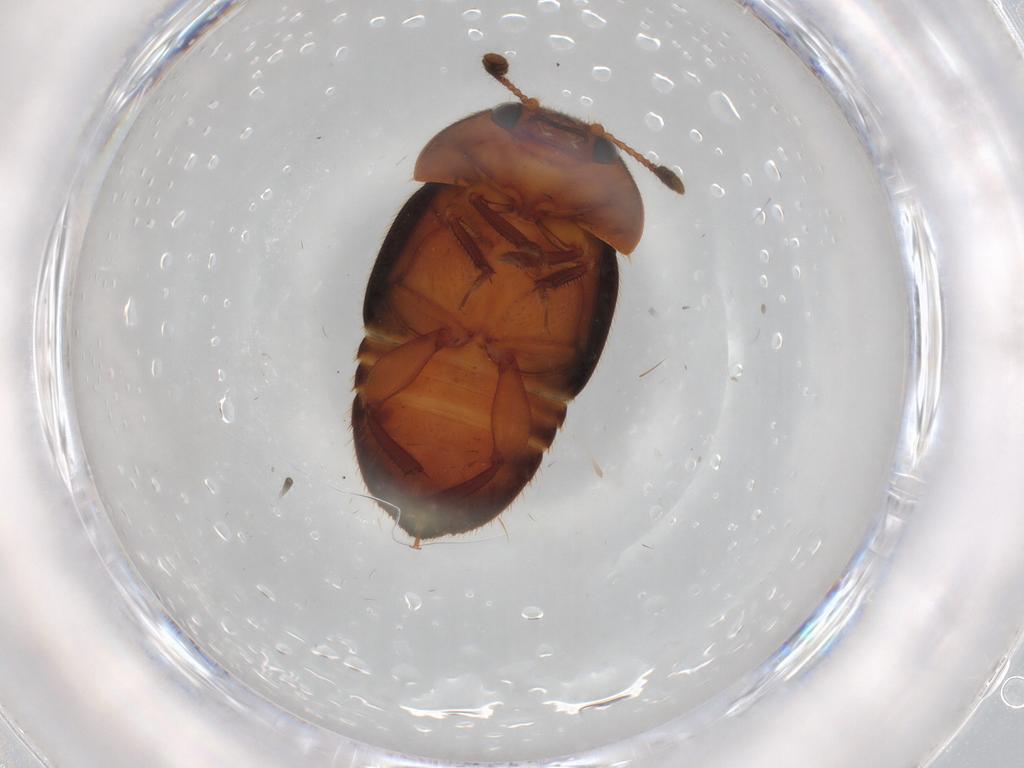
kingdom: Animalia
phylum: Arthropoda
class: Insecta
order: Coleoptera
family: Nitidulidae
